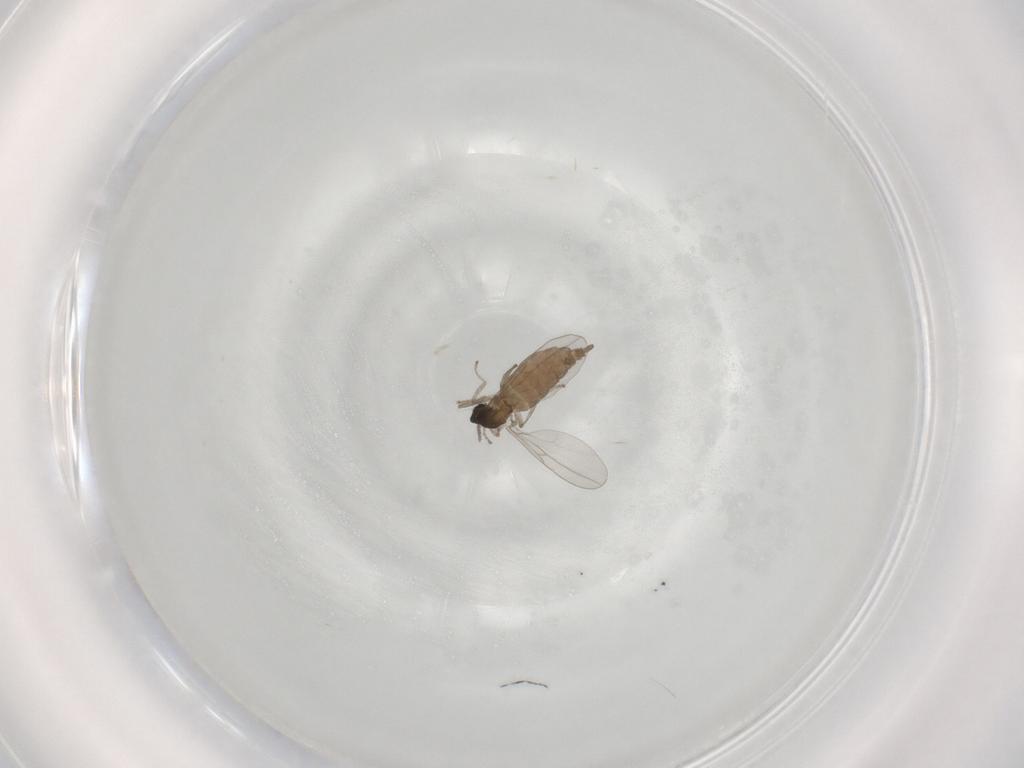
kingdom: Animalia
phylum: Arthropoda
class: Insecta
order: Diptera
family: Cecidomyiidae
